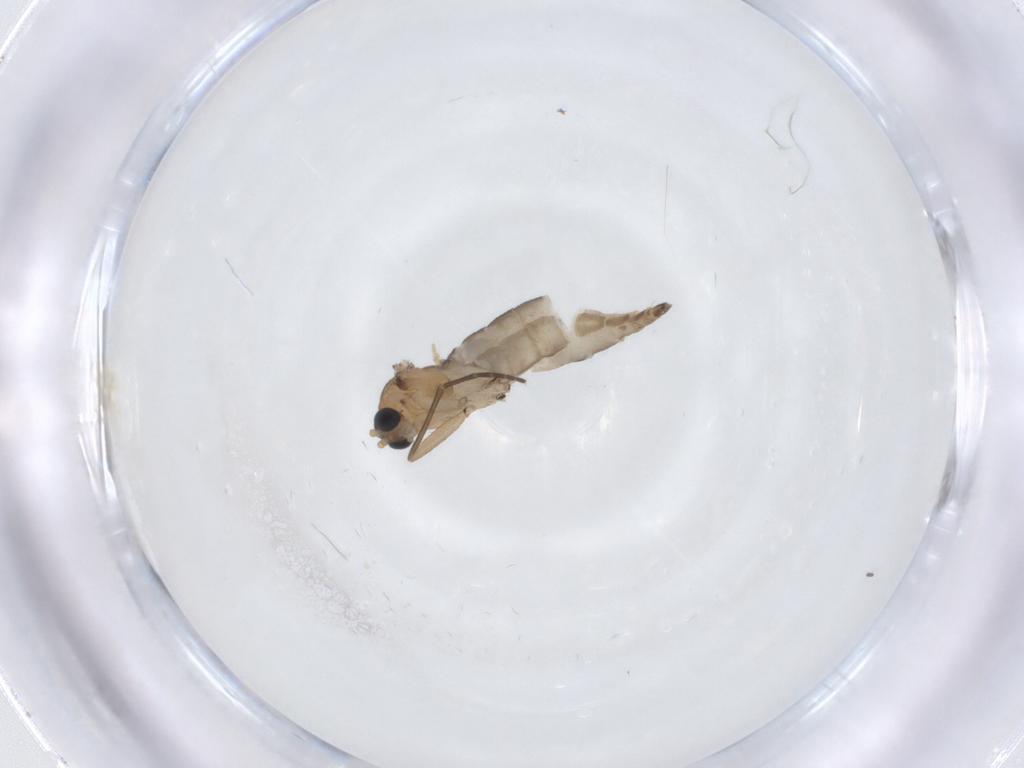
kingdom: Animalia
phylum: Arthropoda
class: Insecta
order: Diptera
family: Sciaridae
